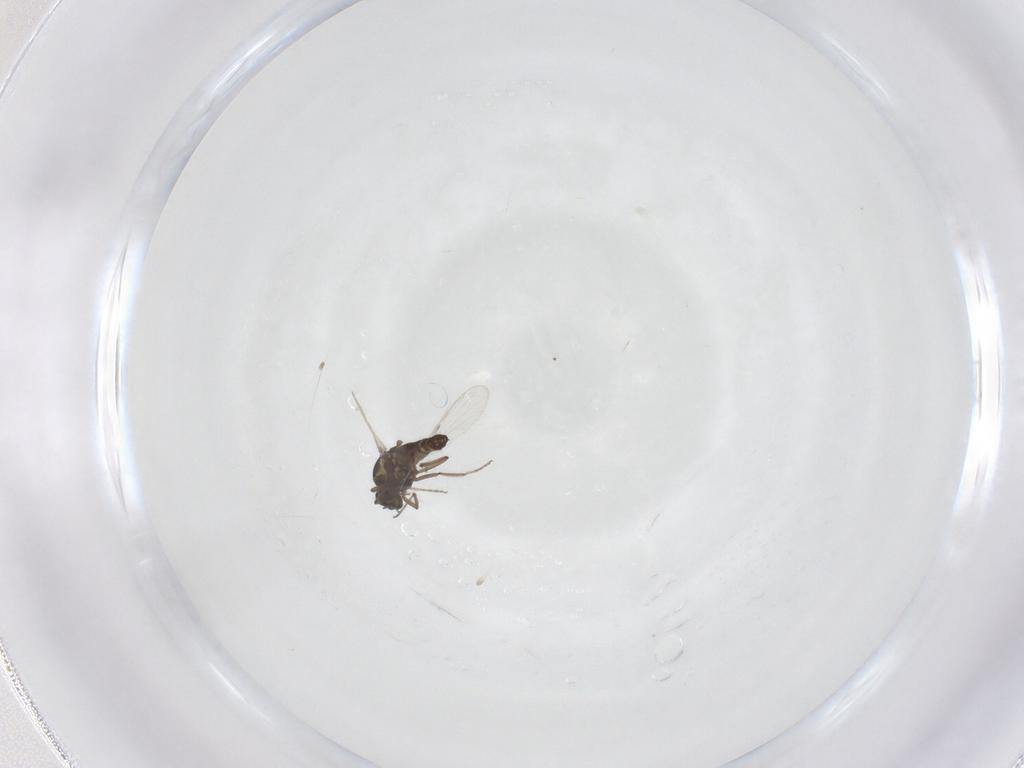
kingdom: Animalia
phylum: Arthropoda
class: Insecta
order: Diptera
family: Ceratopogonidae
